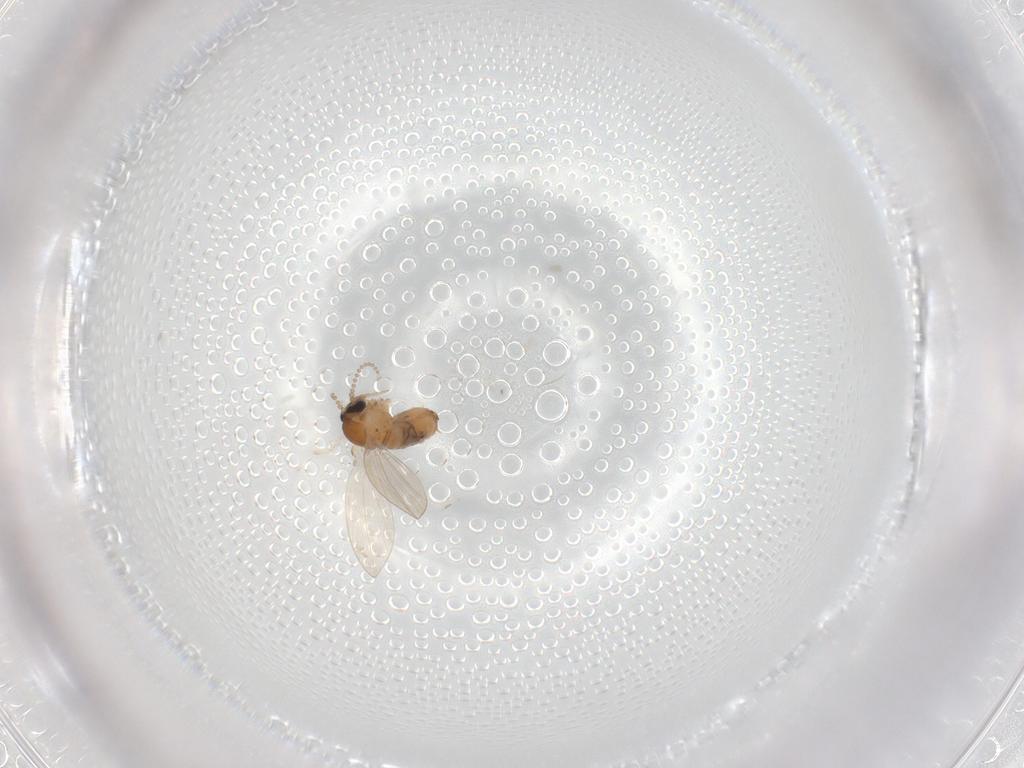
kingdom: Animalia
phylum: Arthropoda
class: Insecta
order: Diptera
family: Psychodidae
